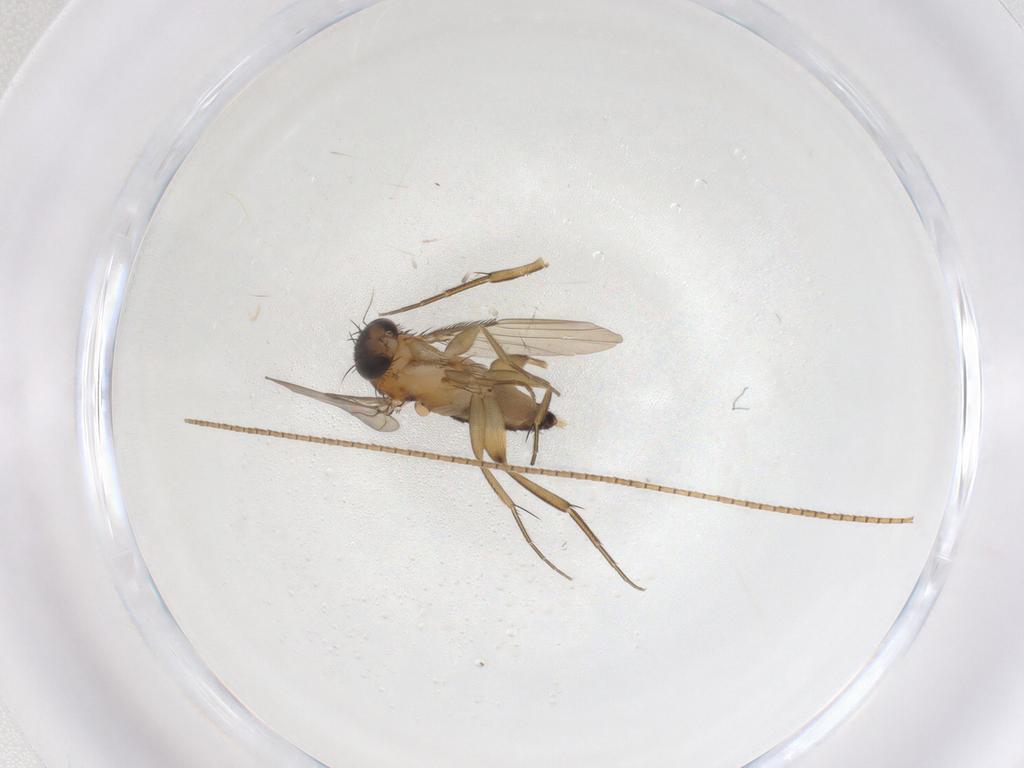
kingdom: Animalia
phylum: Arthropoda
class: Insecta
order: Diptera
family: Phoridae
